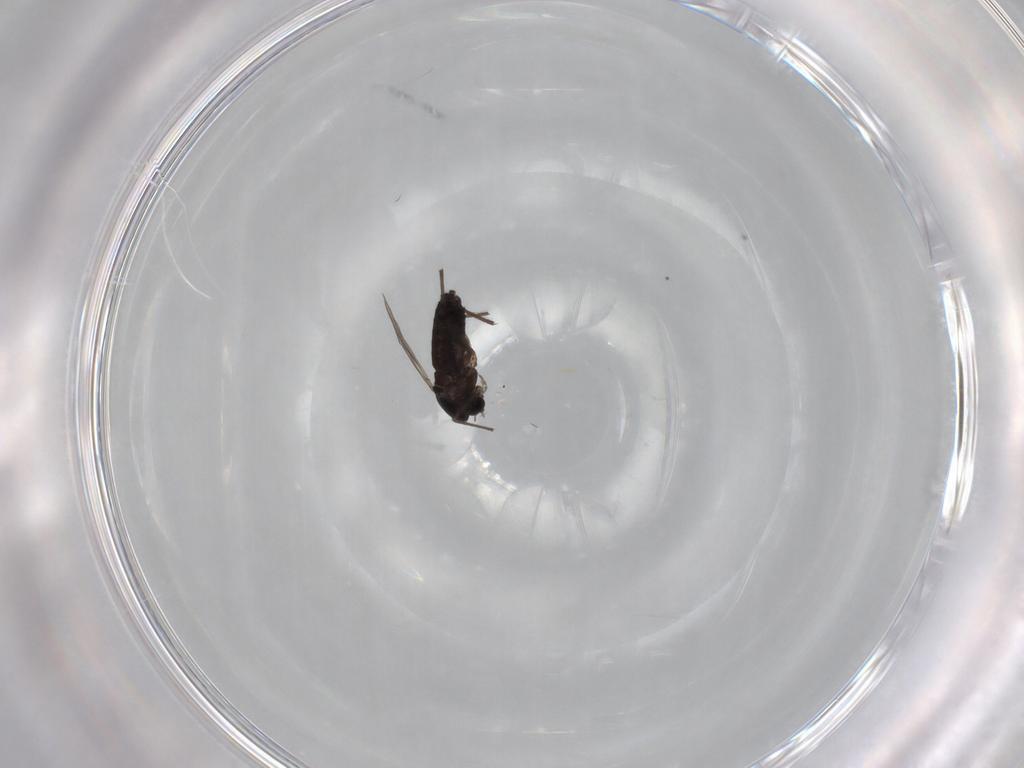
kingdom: Animalia
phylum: Arthropoda
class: Insecta
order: Diptera
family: Chironomidae
